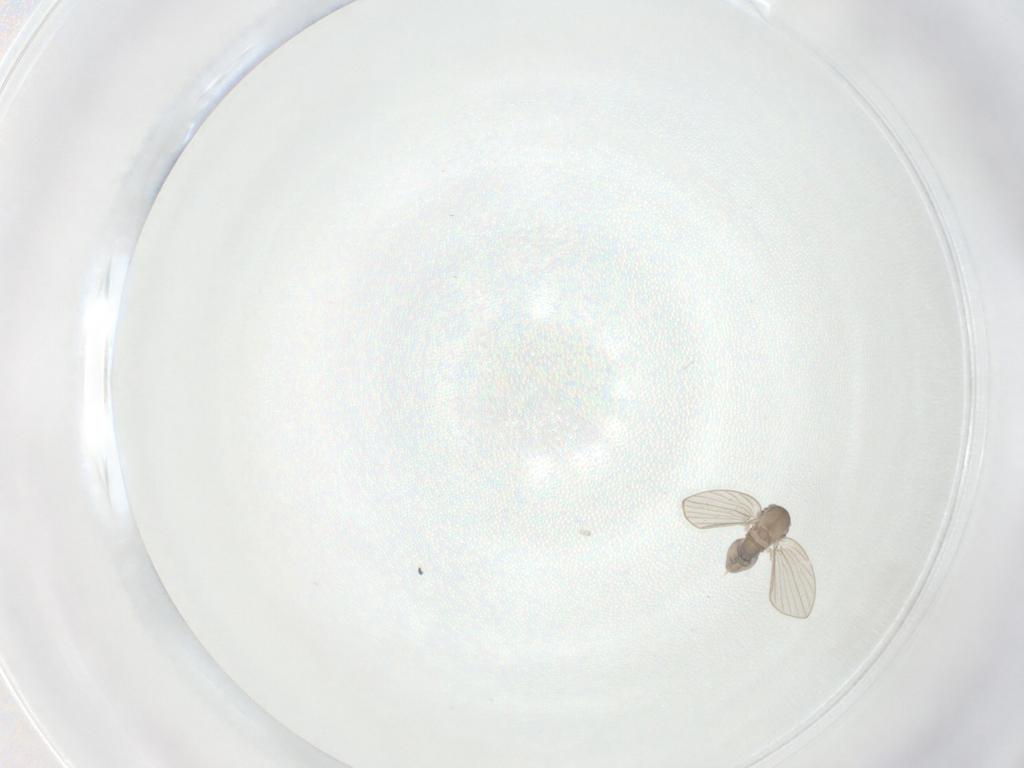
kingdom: Animalia
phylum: Arthropoda
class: Insecta
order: Diptera
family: Psychodidae
